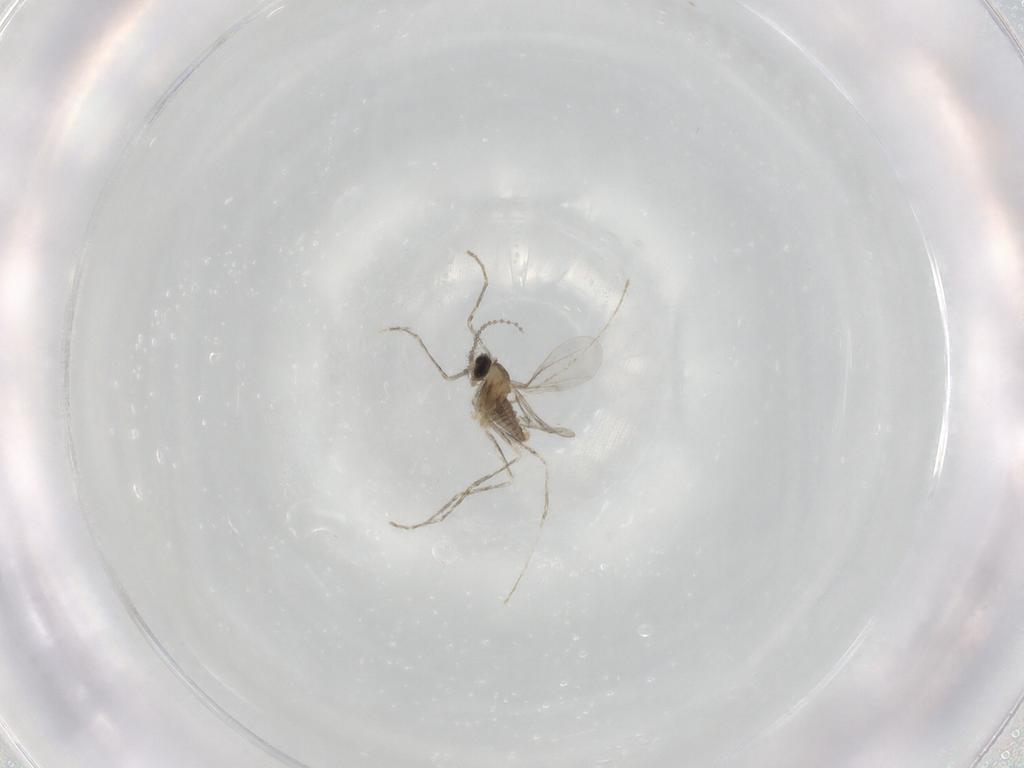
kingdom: Animalia
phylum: Arthropoda
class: Insecta
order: Diptera
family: Cecidomyiidae
